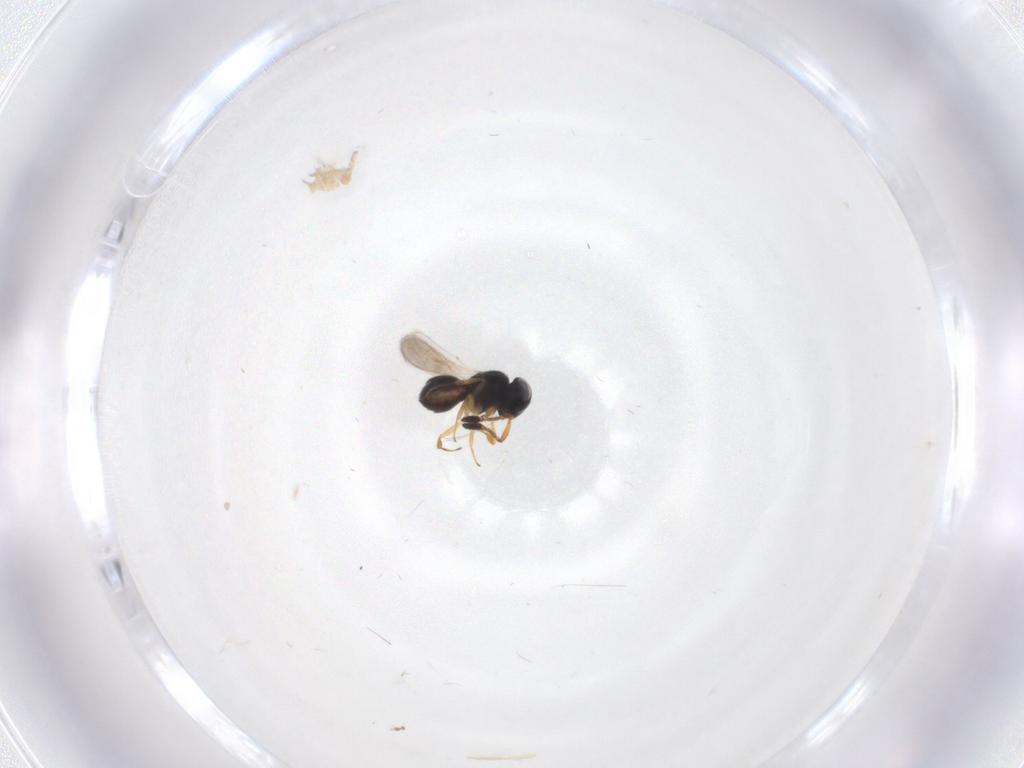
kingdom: Animalia
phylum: Arthropoda
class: Insecta
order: Hymenoptera
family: Scelionidae
